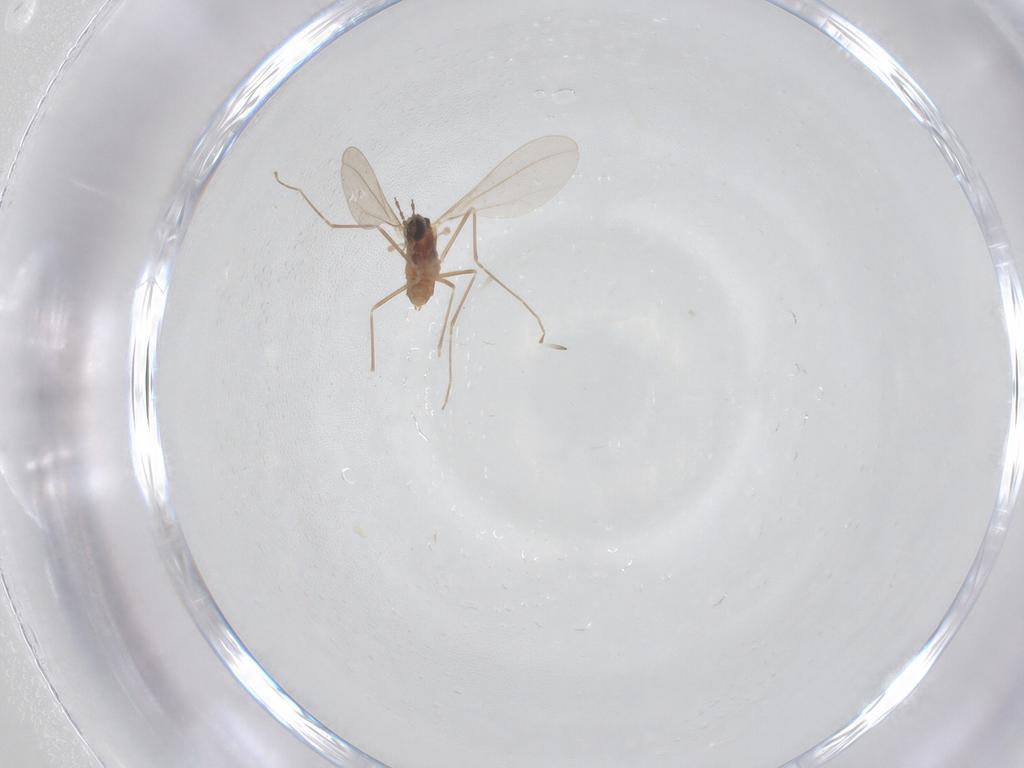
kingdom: Animalia
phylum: Arthropoda
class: Insecta
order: Diptera
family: Cecidomyiidae
